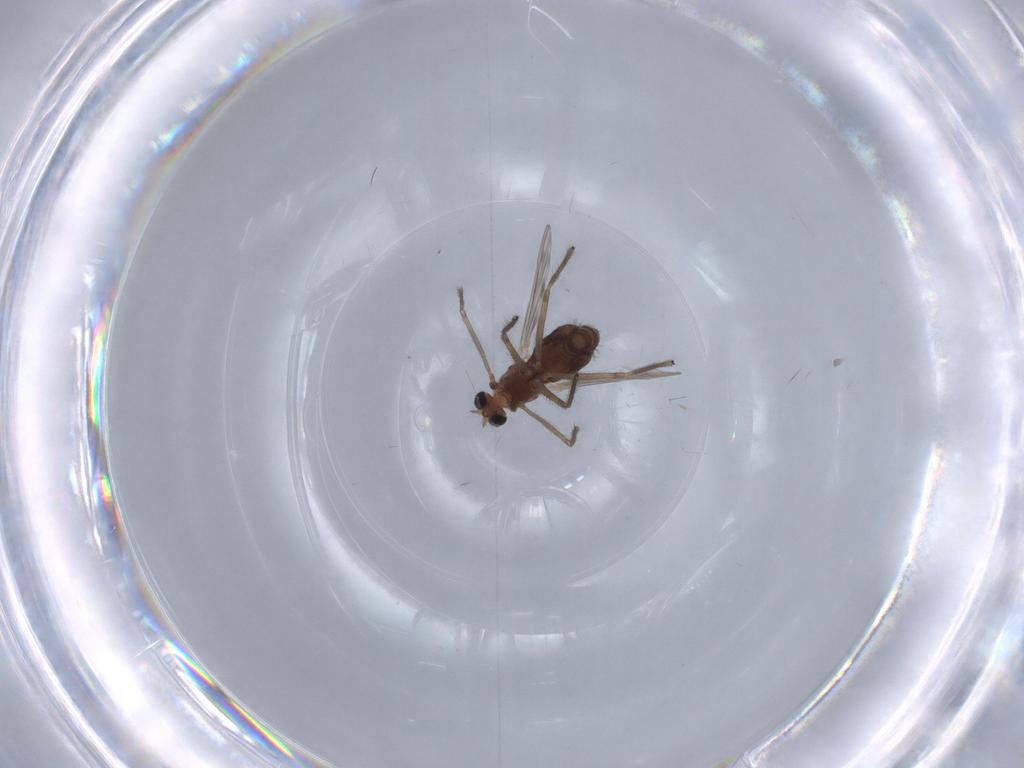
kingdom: Animalia
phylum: Arthropoda
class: Insecta
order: Diptera
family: Chironomidae
